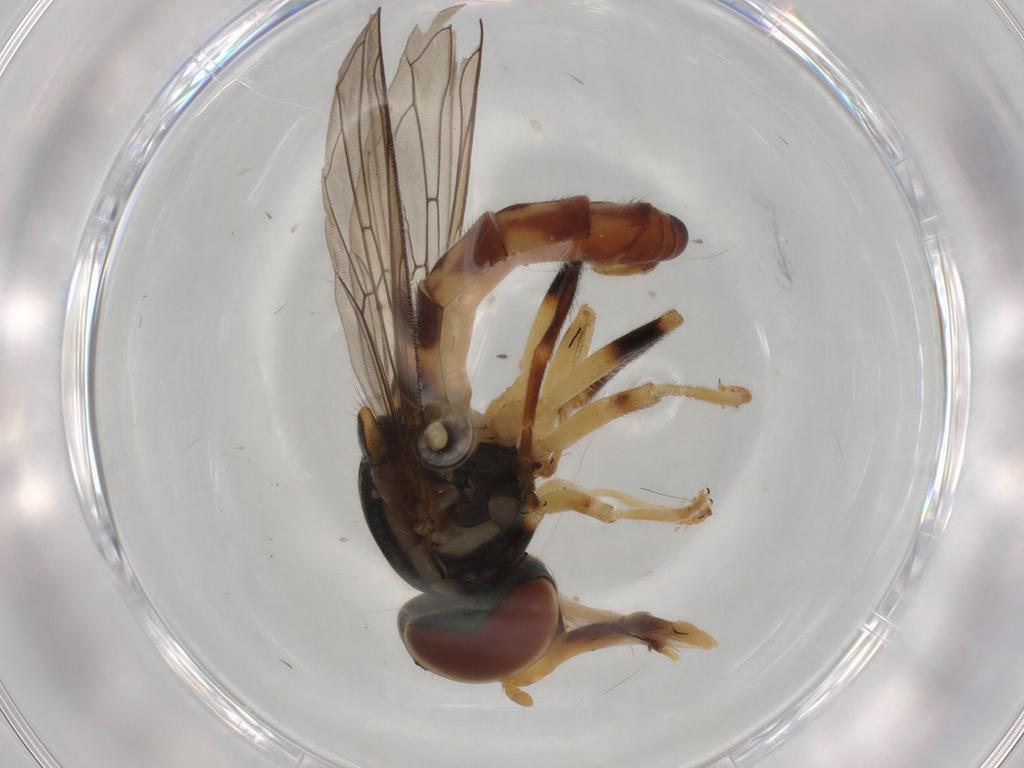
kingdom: Animalia
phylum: Arthropoda
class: Insecta
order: Diptera
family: Syrphidae
